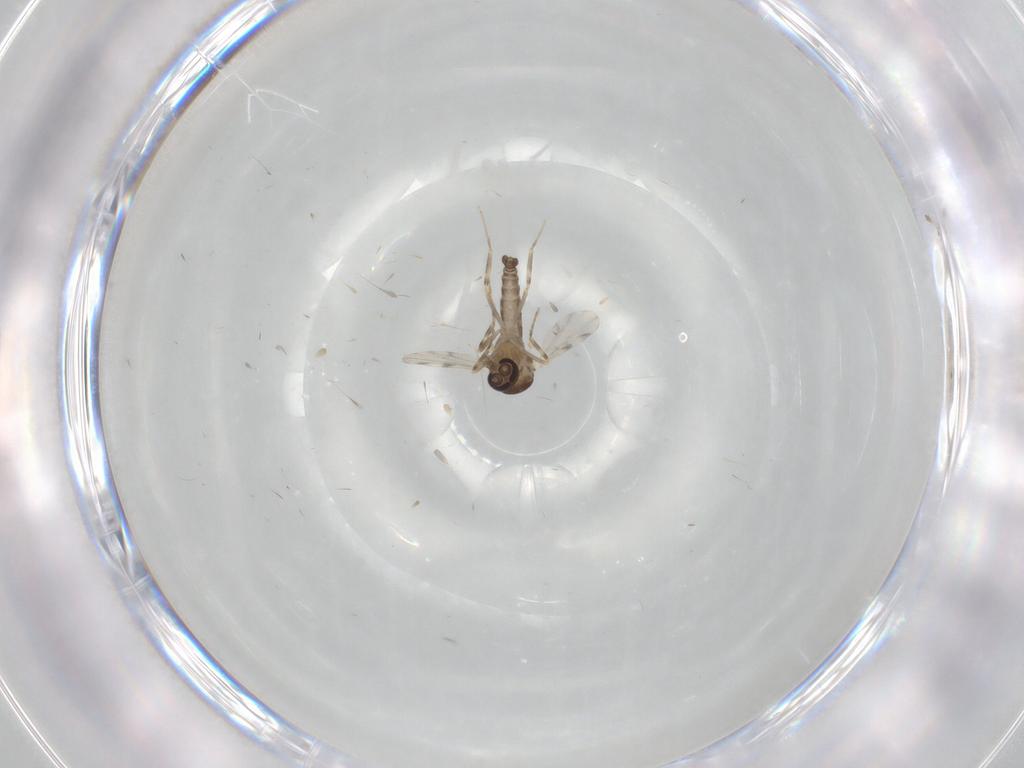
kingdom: Animalia
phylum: Arthropoda
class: Insecta
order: Diptera
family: Ceratopogonidae
